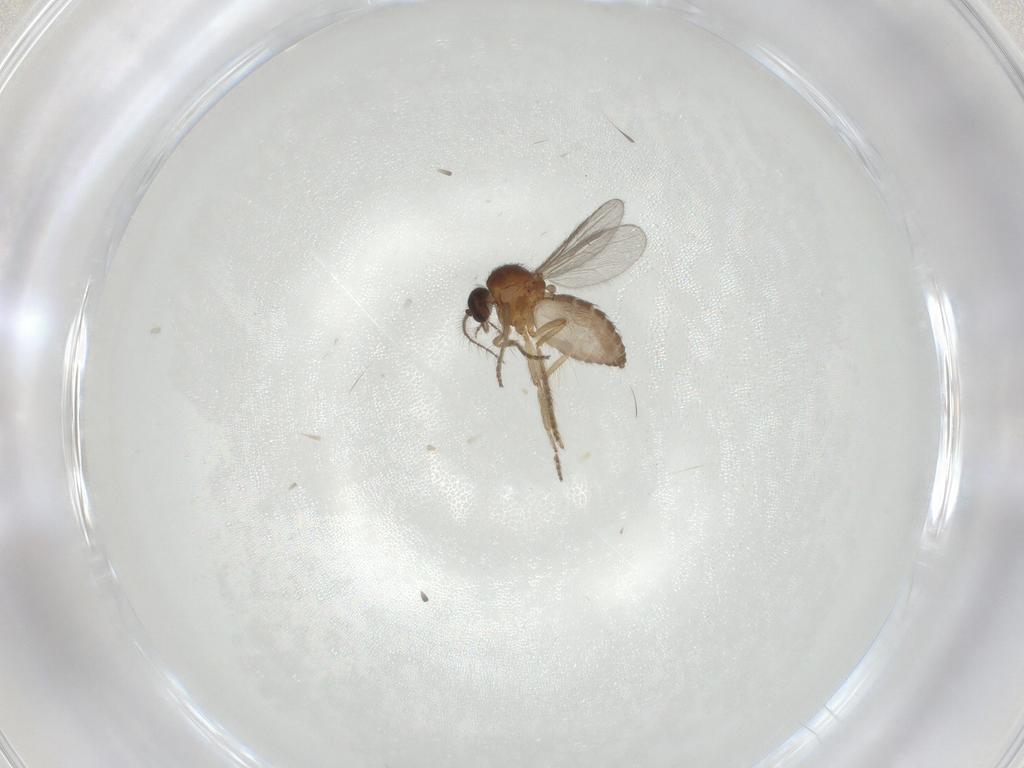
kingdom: Animalia
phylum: Arthropoda
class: Insecta
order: Diptera
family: Ceratopogonidae
